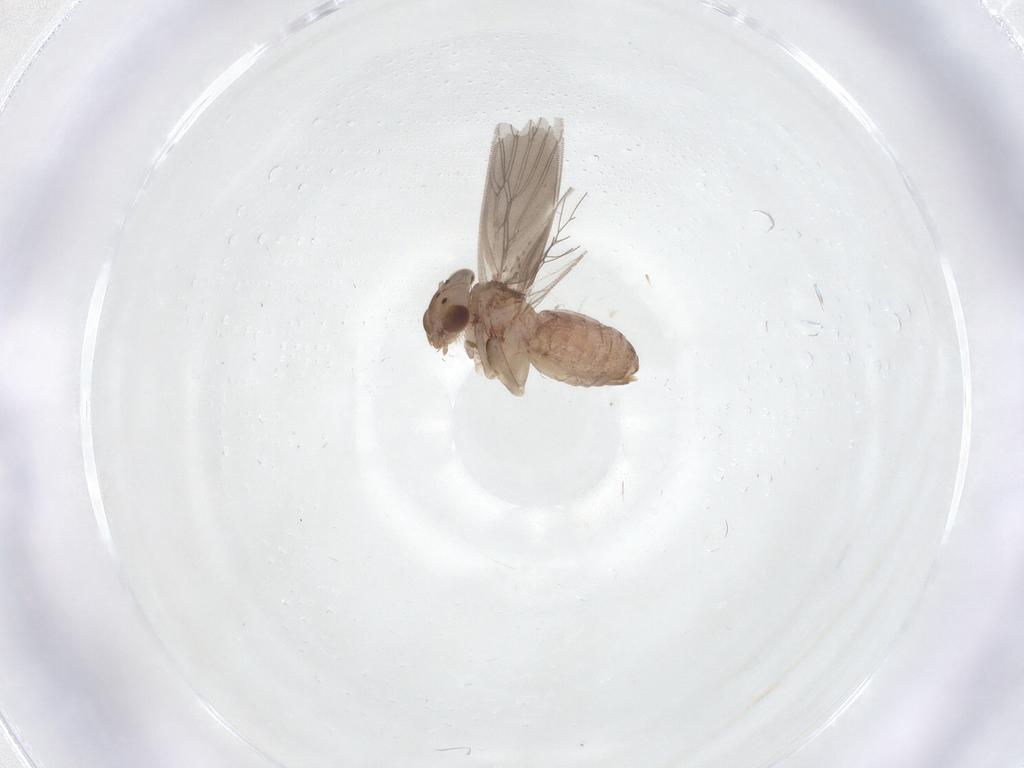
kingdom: Animalia
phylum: Arthropoda
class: Insecta
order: Psocodea
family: Lepidopsocidae
